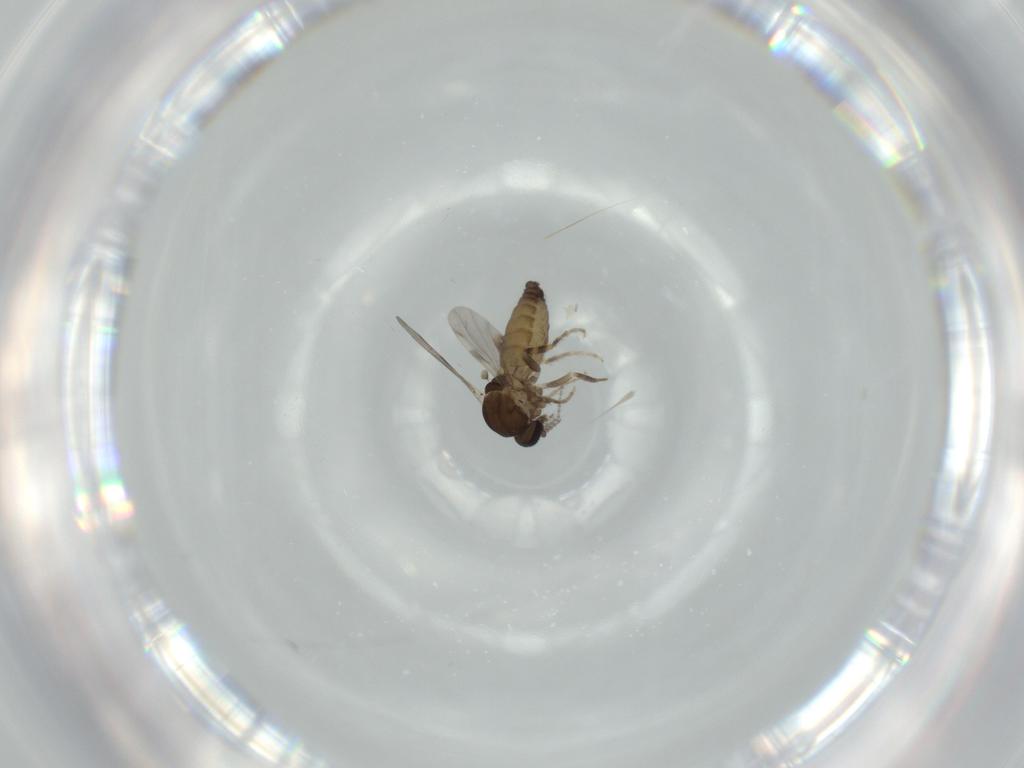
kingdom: Animalia
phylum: Arthropoda
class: Insecta
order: Diptera
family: Ceratopogonidae
